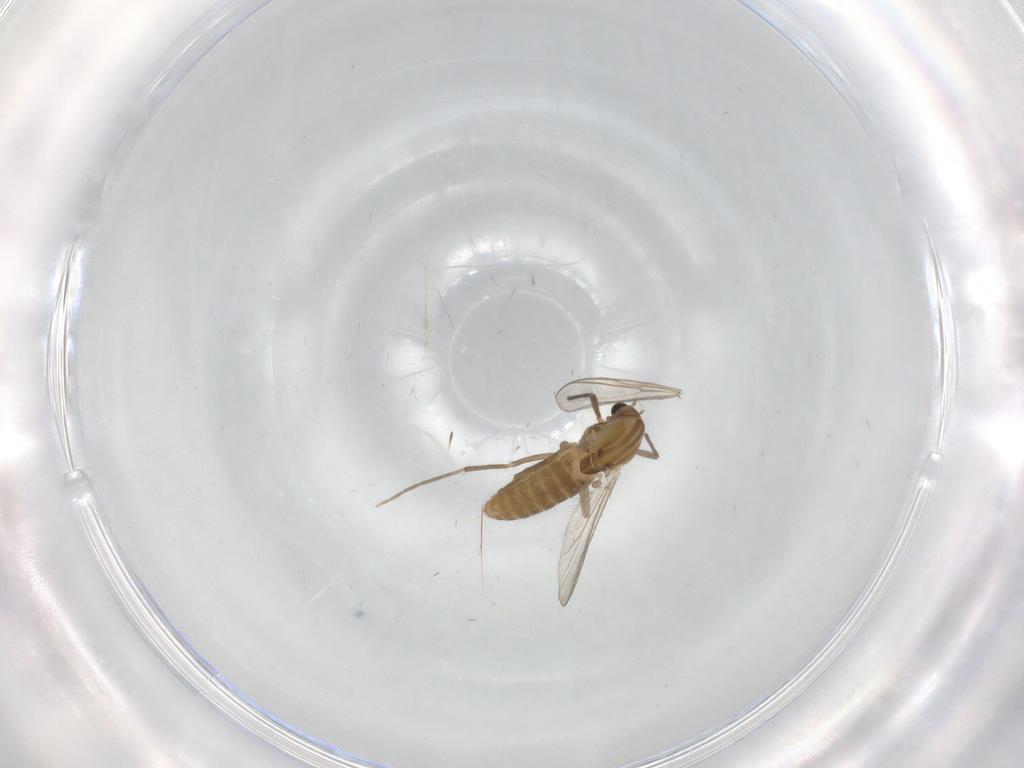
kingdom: Animalia
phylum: Arthropoda
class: Insecta
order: Diptera
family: Chironomidae
